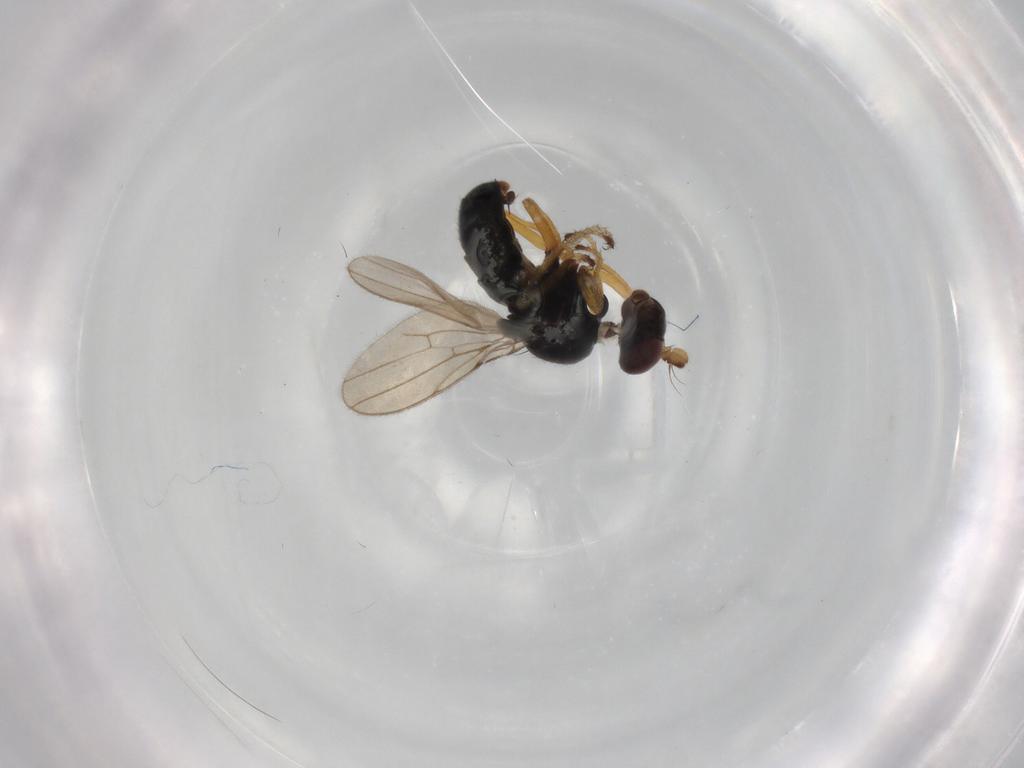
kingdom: Animalia
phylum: Arthropoda
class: Insecta
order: Diptera
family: Ephydridae
